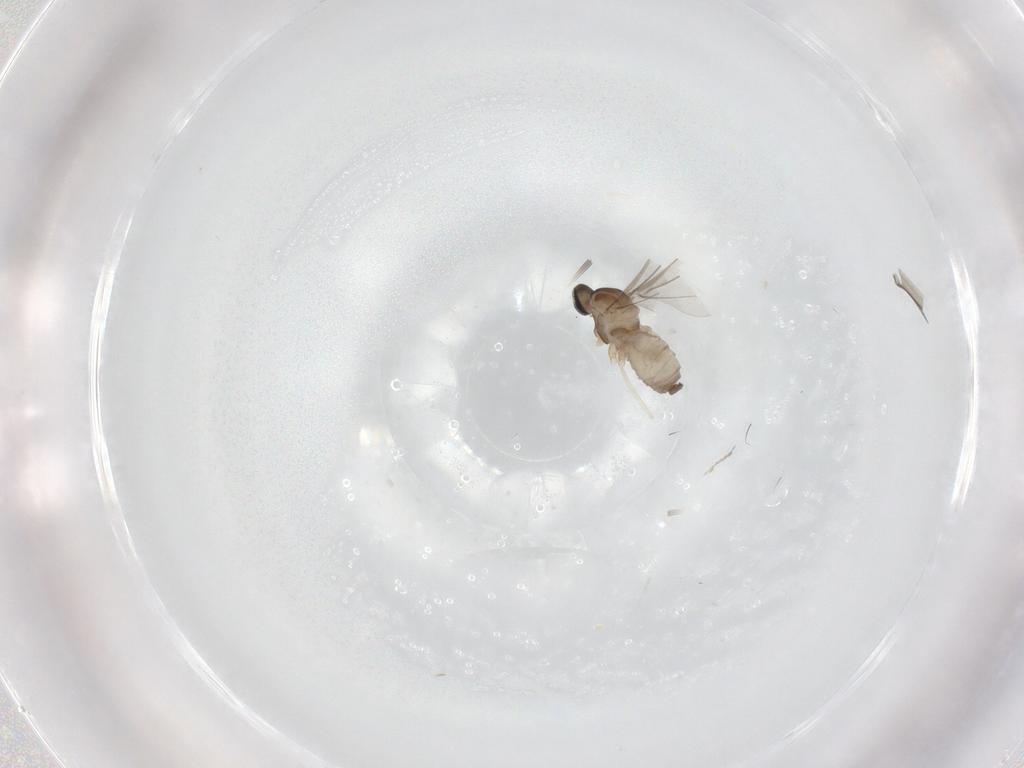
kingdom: Animalia
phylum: Arthropoda
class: Insecta
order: Diptera
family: Cecidomyiidae
